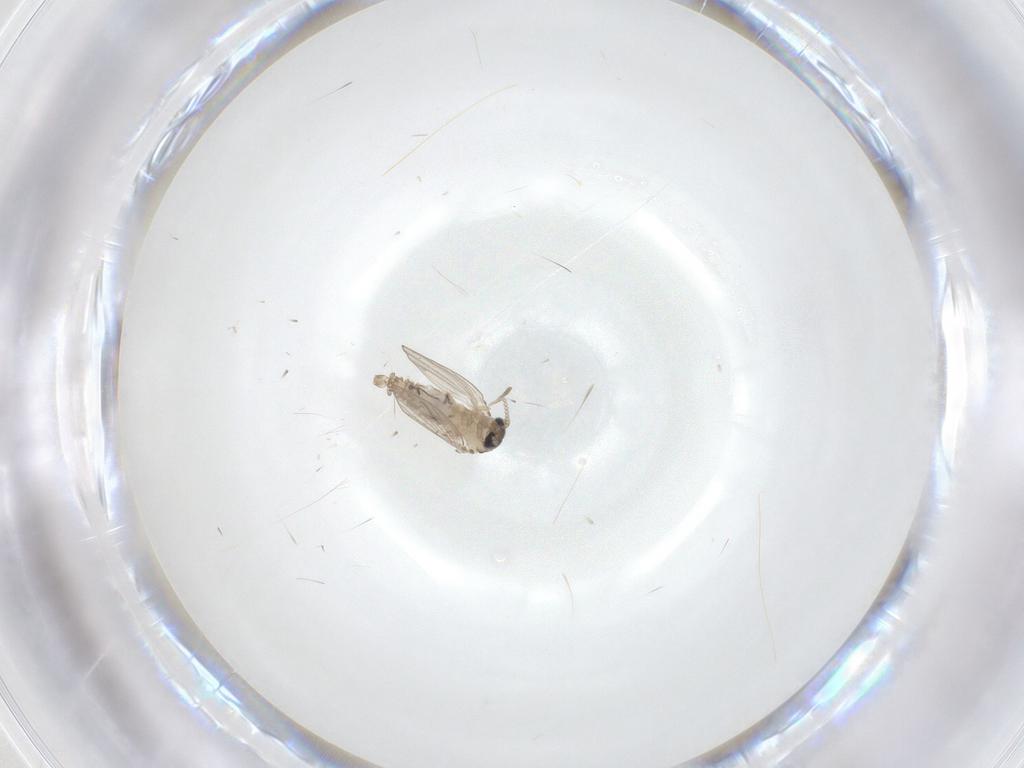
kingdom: Animalia
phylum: Arthropoda
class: Insecta
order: Diptera
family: Psychodidae
